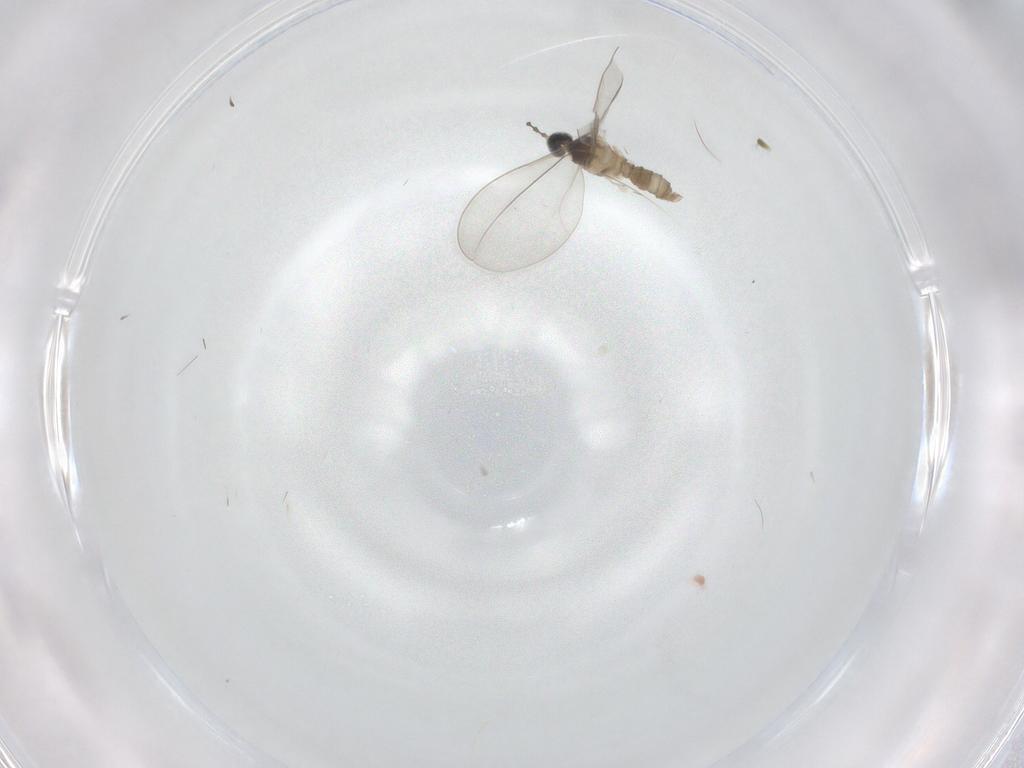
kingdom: Animalia
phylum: Arthropoda
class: Insecta
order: Diptera
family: Cecidomyiidae
